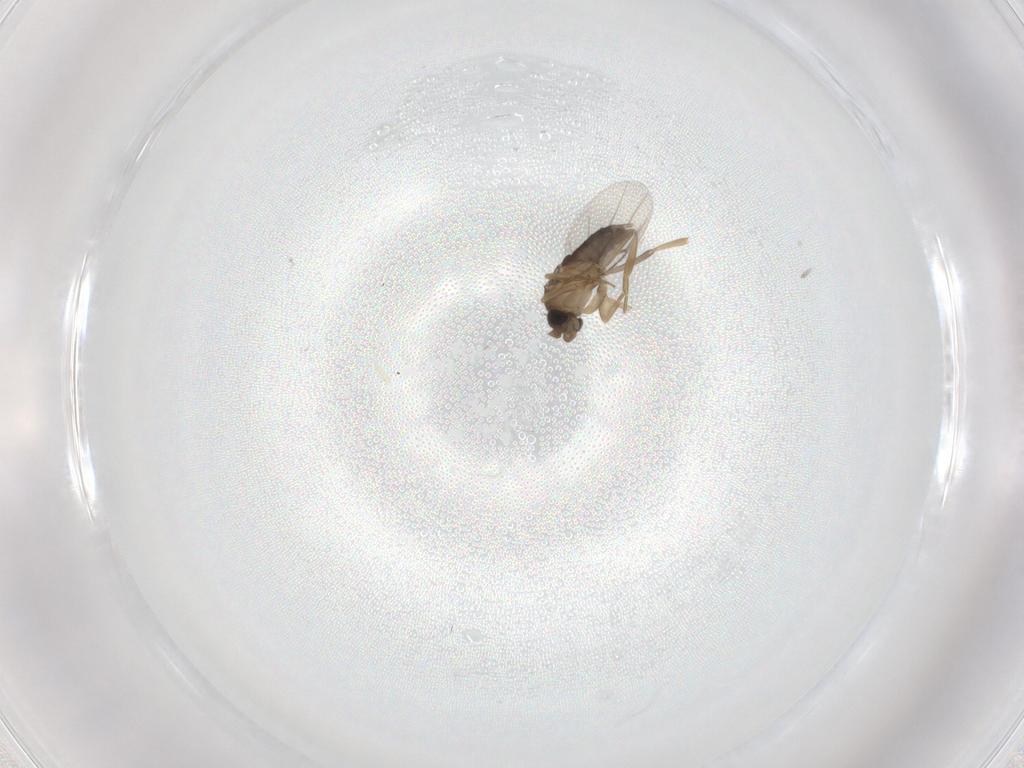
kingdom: Animalia
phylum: Arthropoda
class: Insecta
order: Diptera
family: Phoridae
